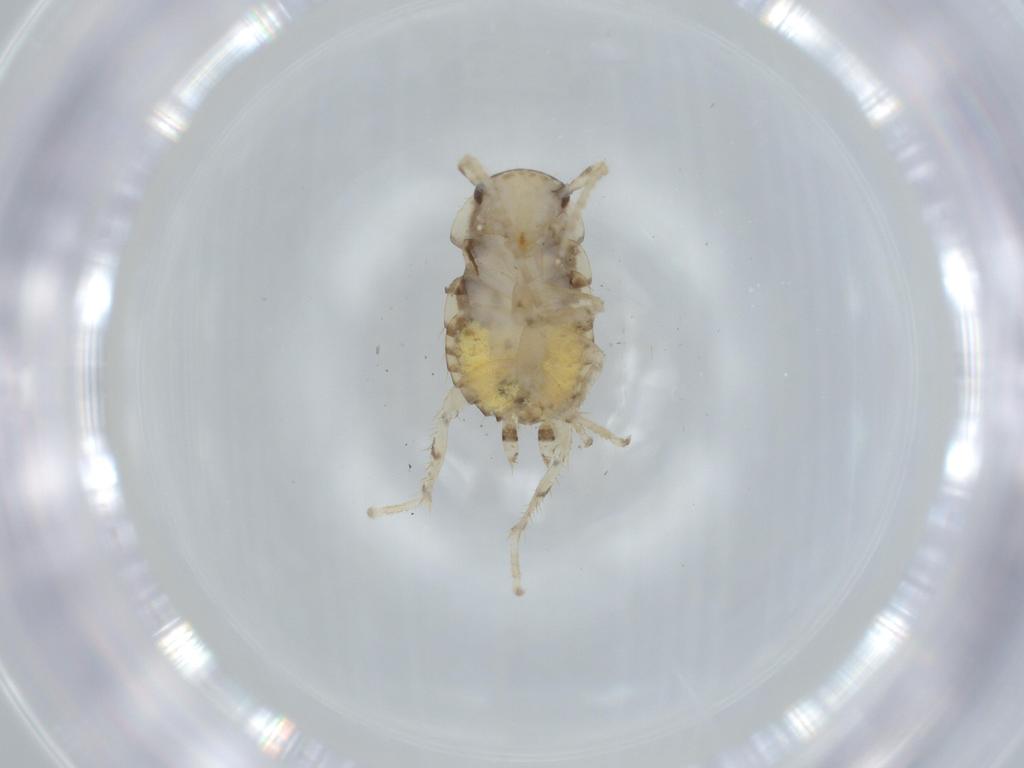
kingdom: Animalia
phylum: Arthropoda
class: Insecta
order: Blattodea
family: Ectobiidae
